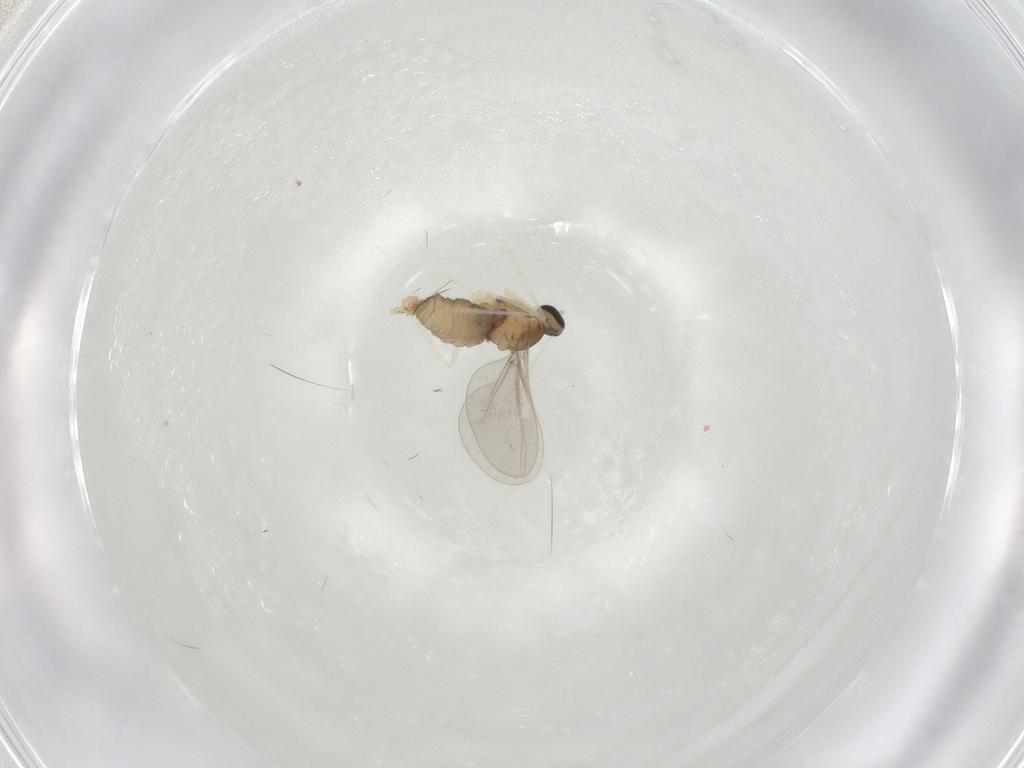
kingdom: Animalia
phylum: Arthropoda
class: Insecta
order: Diptera
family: Cecidomyiidae
